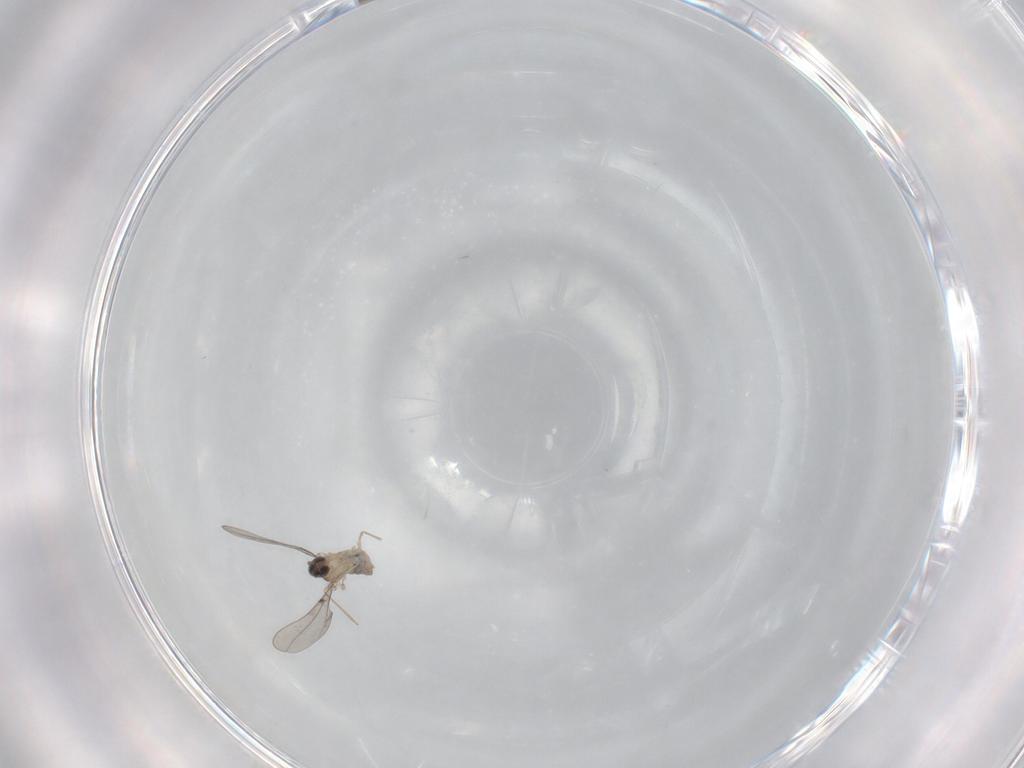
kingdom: Animalia
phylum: Arthropoda
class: Insecta
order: Diptera
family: Cecidomyiidae
